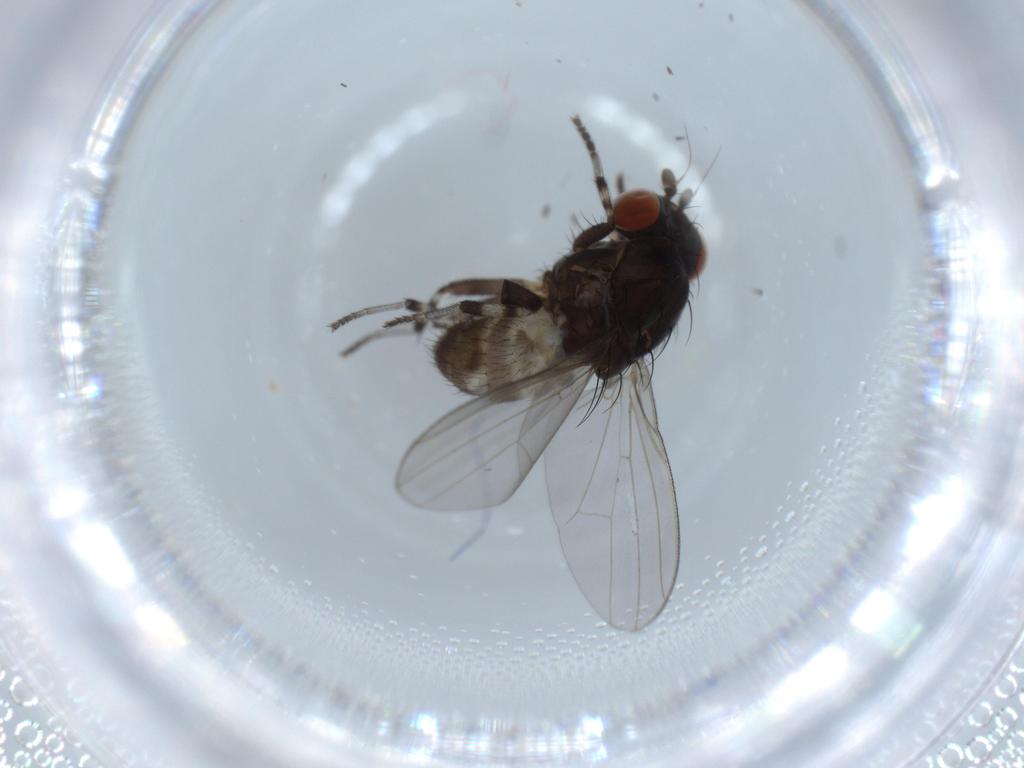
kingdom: Animalia
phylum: Arthropoda
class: Insecta
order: Diptera
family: Lauxaniidae
